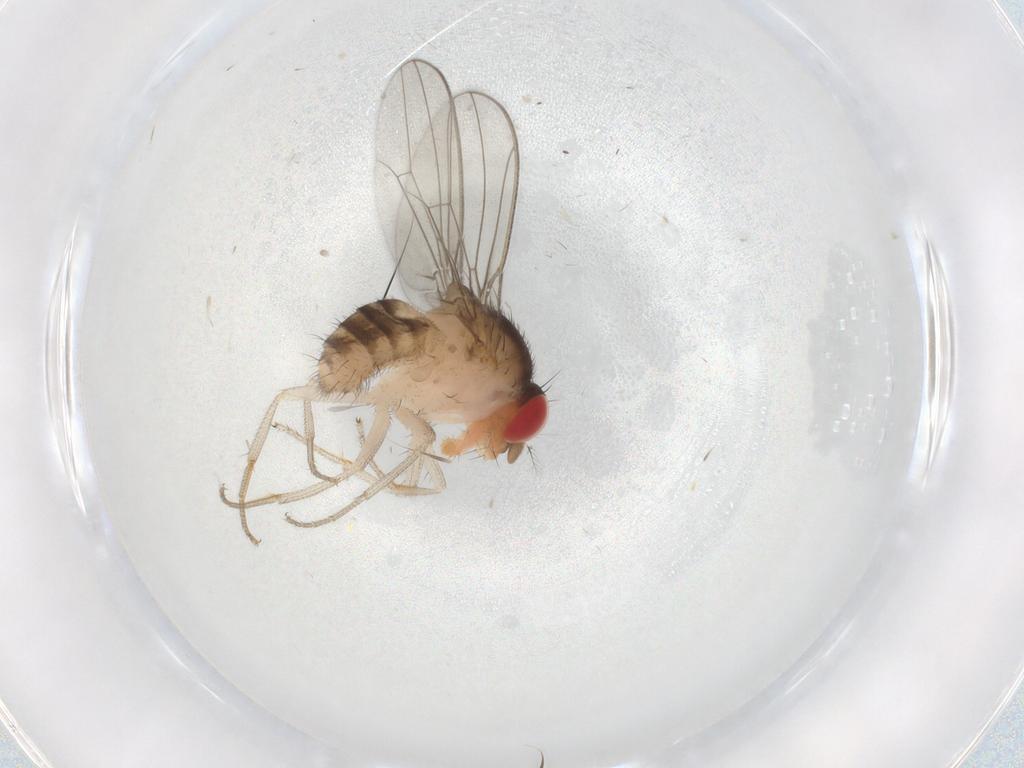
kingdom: Animalia
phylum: Arthropoda
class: Insecta
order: Diptera
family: Drosophilidae
